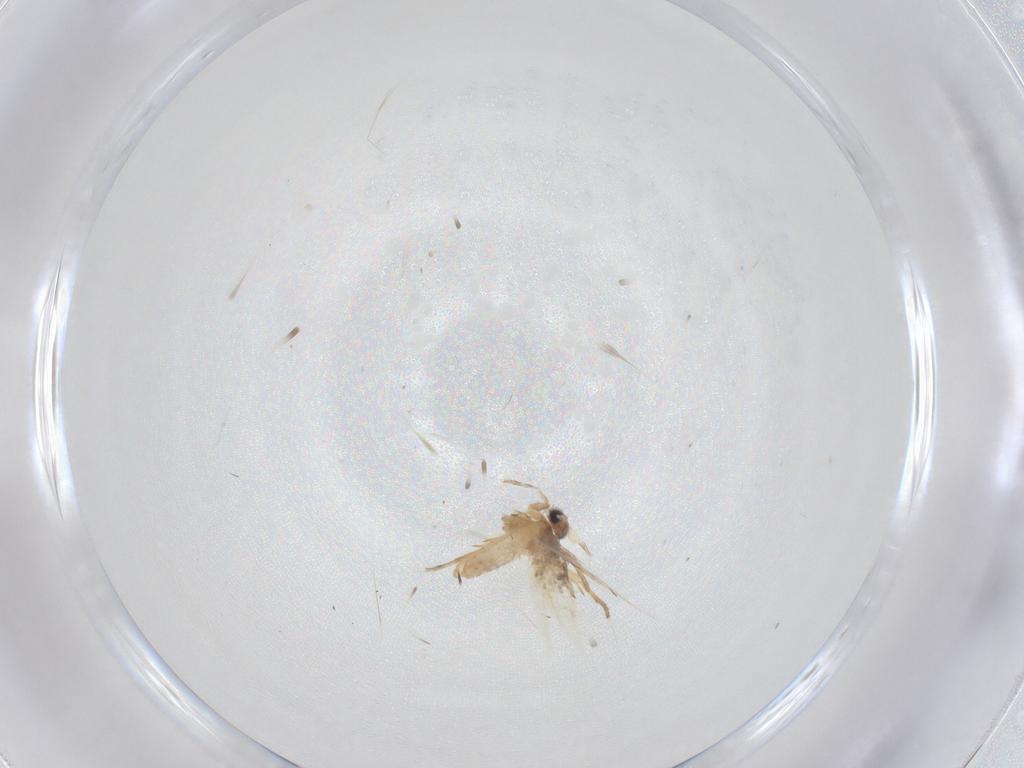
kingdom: Animalia
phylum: Arthropoda
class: Insecta
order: Lepidoptera
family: Nepticulidae
